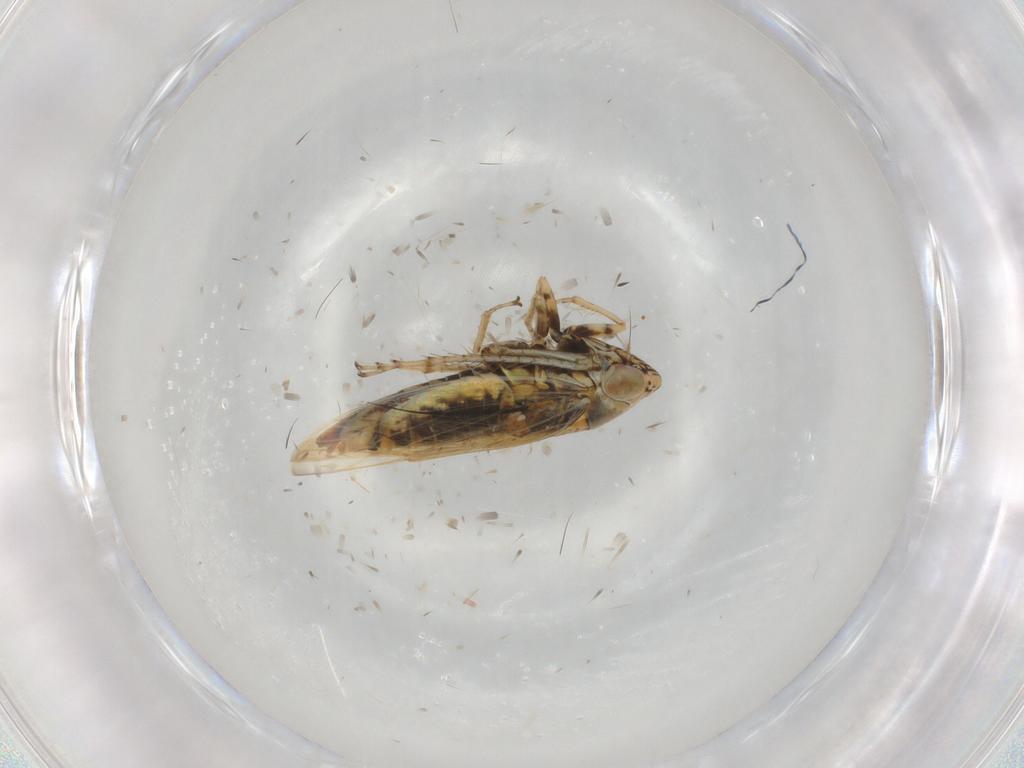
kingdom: Animalia
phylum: Arthropoda
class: Insecta
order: Hemiptera
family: Cicadellidae
